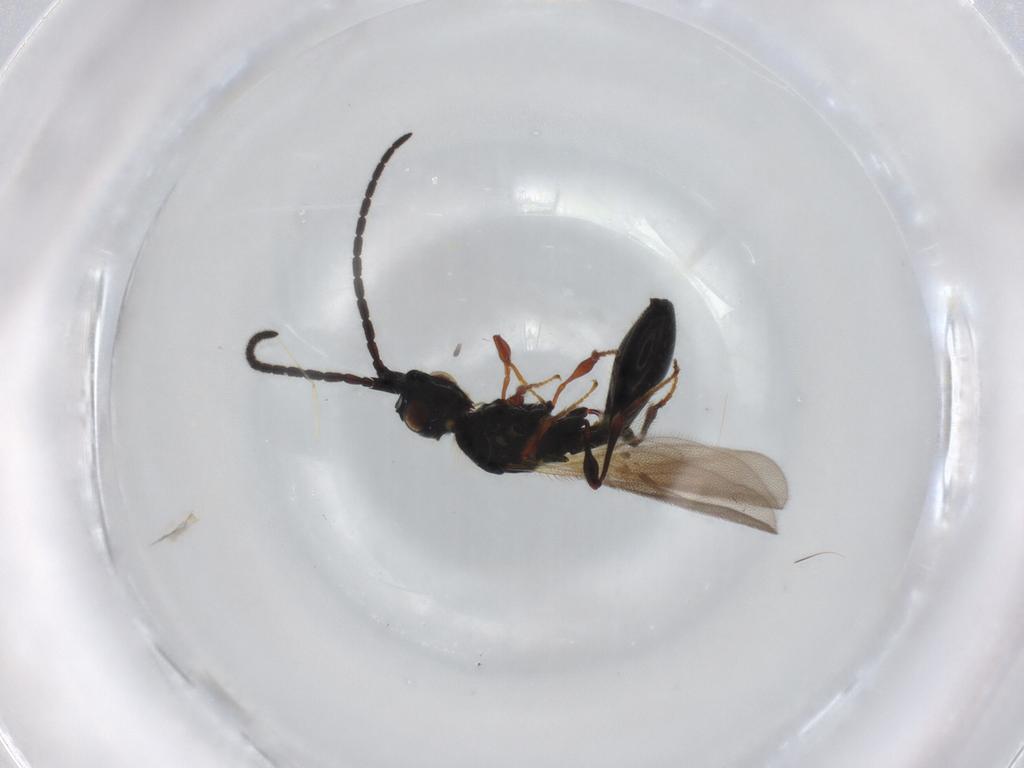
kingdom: Animalia
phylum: Arthropoda
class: Insecta
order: Hymenoptera
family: Diapriidae
